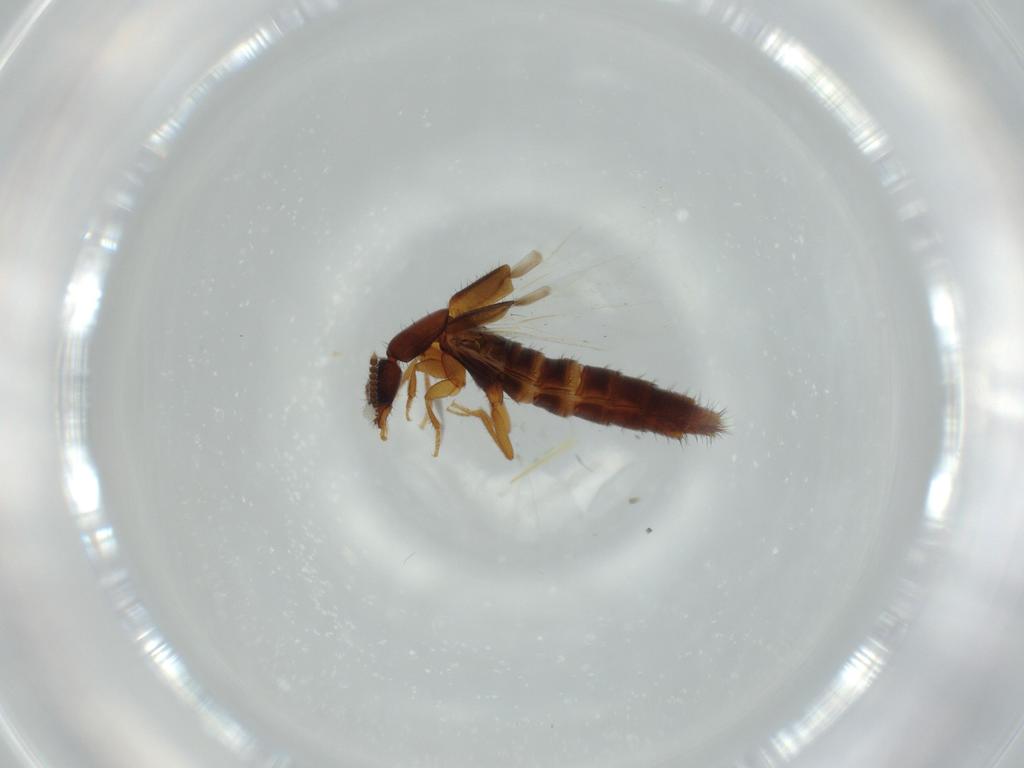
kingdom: Animalia
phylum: Arthropoda
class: Insecta
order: Coleoptera
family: Staphylinidae
